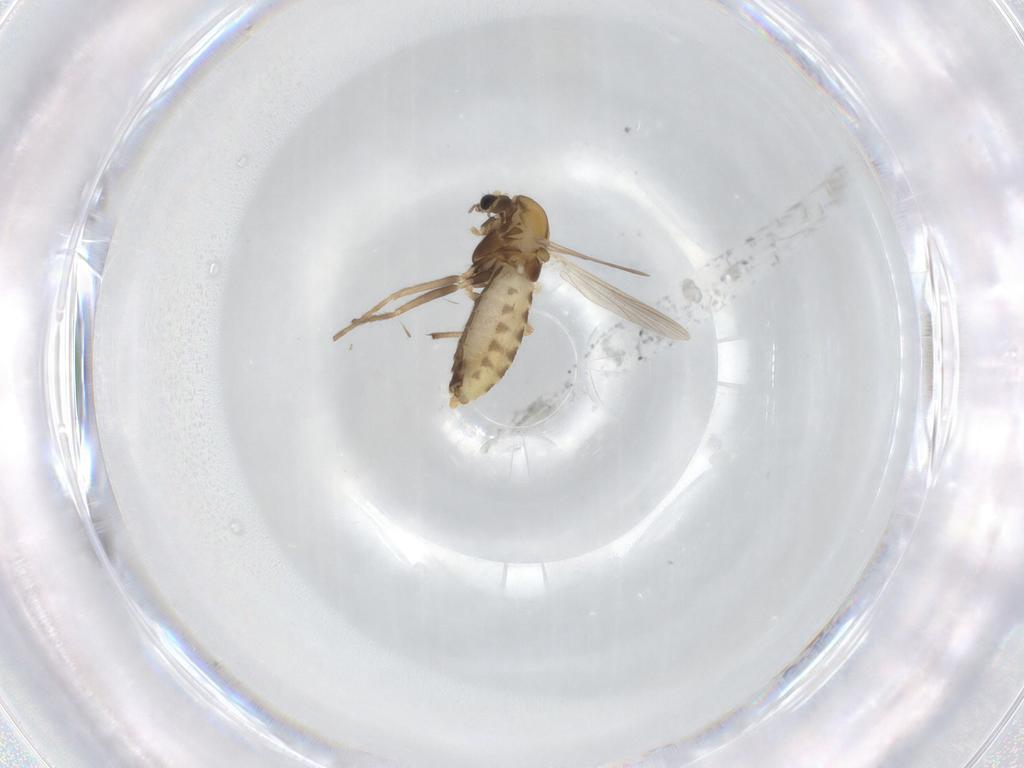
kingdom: Animalia
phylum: Arthropoda
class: Insecta
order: Diptera
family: Chironomidae
